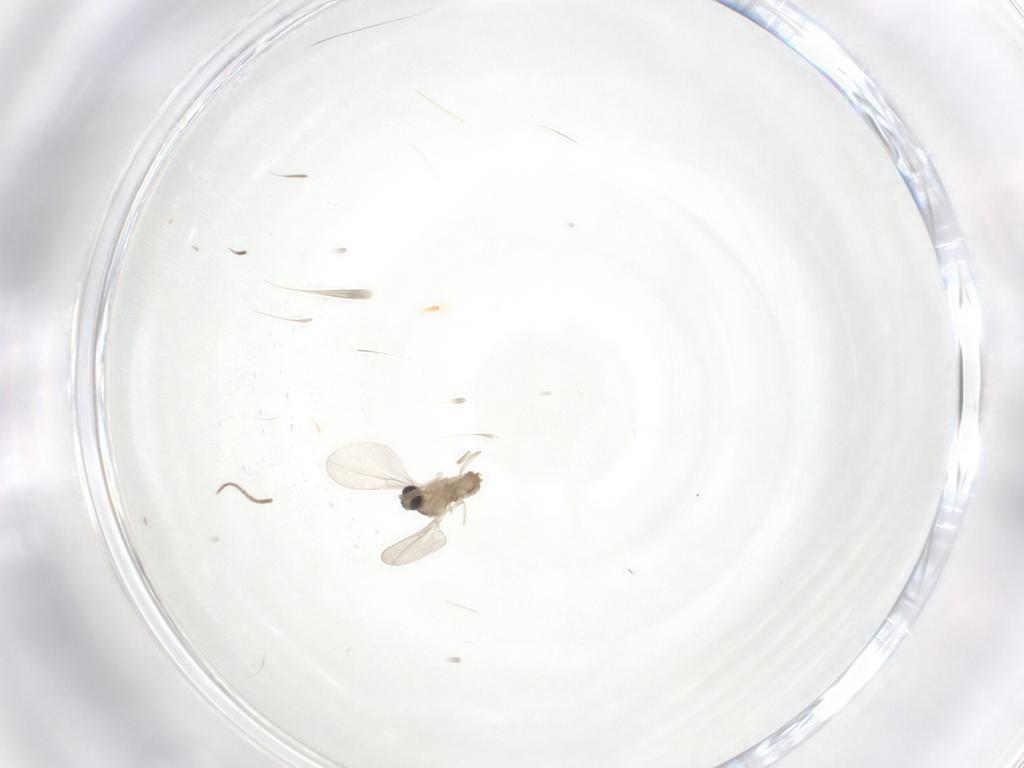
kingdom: Animalia
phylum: Arthropoda
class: Insecta
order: Diptera
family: Cecidomyiidae
